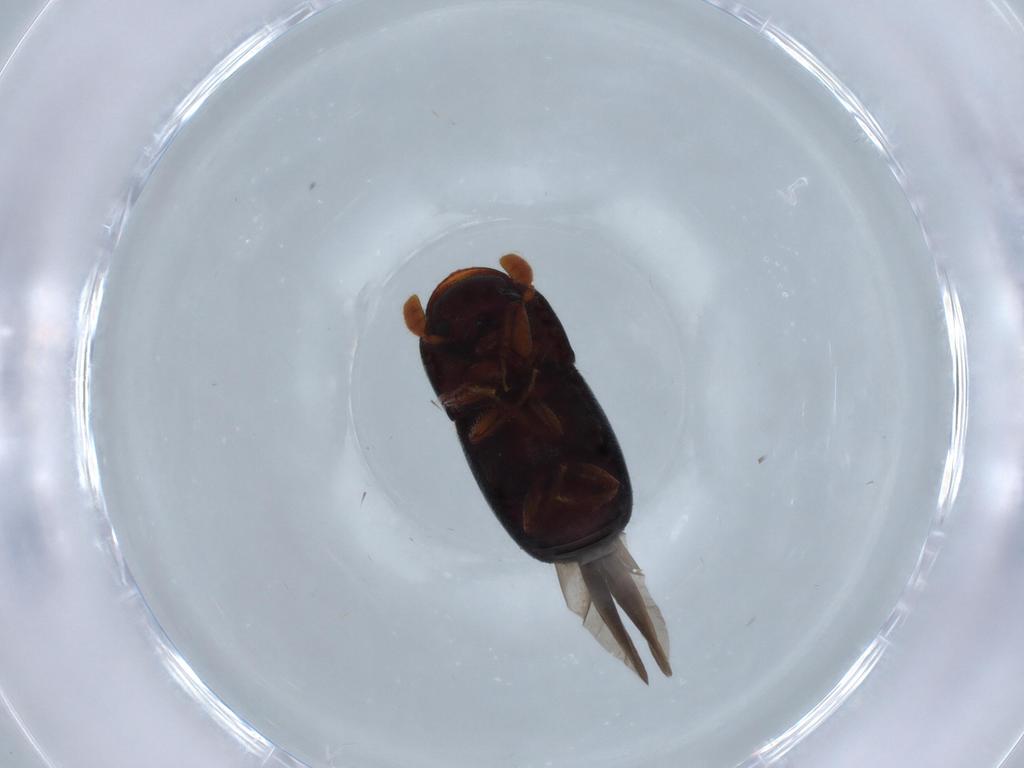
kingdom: Animalia
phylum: Arthropoda
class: Insecta
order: Coleoptera
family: Curculionidae
